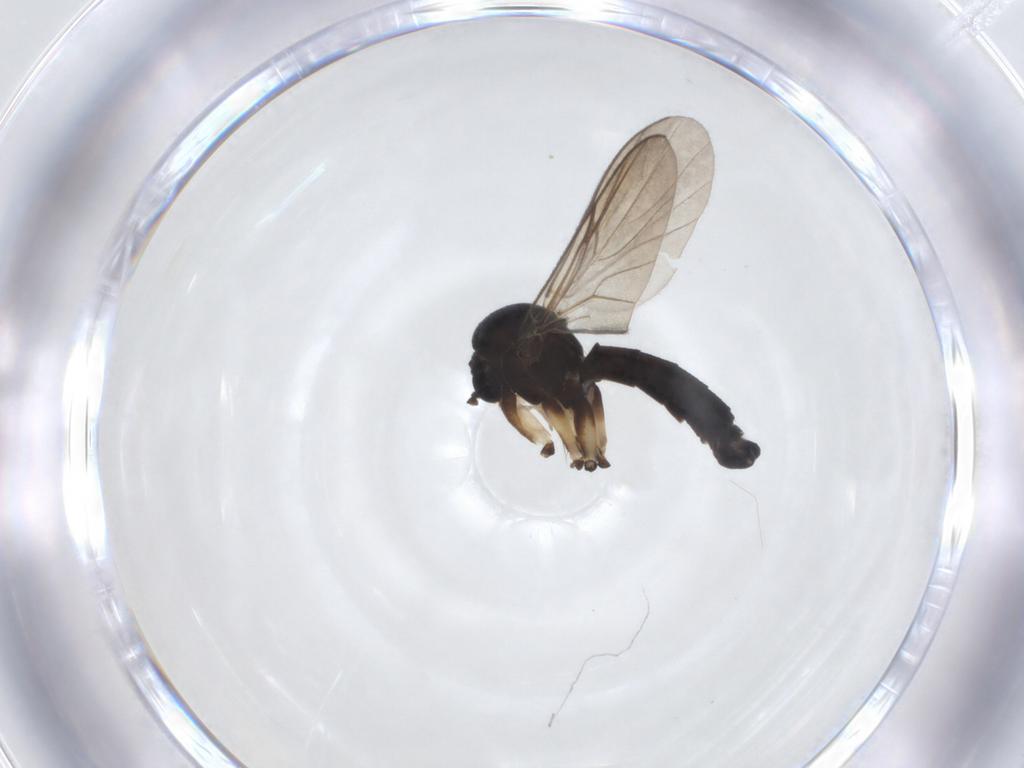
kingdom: Animalia
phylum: Arthropoda
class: Insecta
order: Diptera
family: Mycetophilidae
